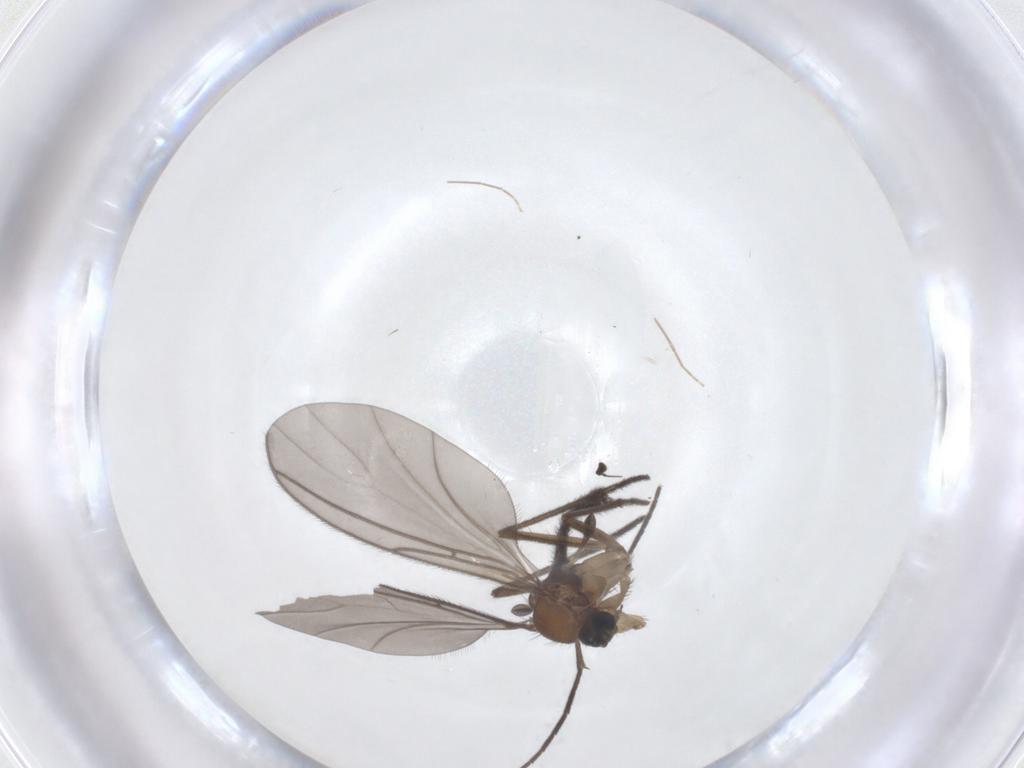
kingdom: Animalia
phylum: Arthropoda
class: Insecta
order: Diptera
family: Sciaridae
